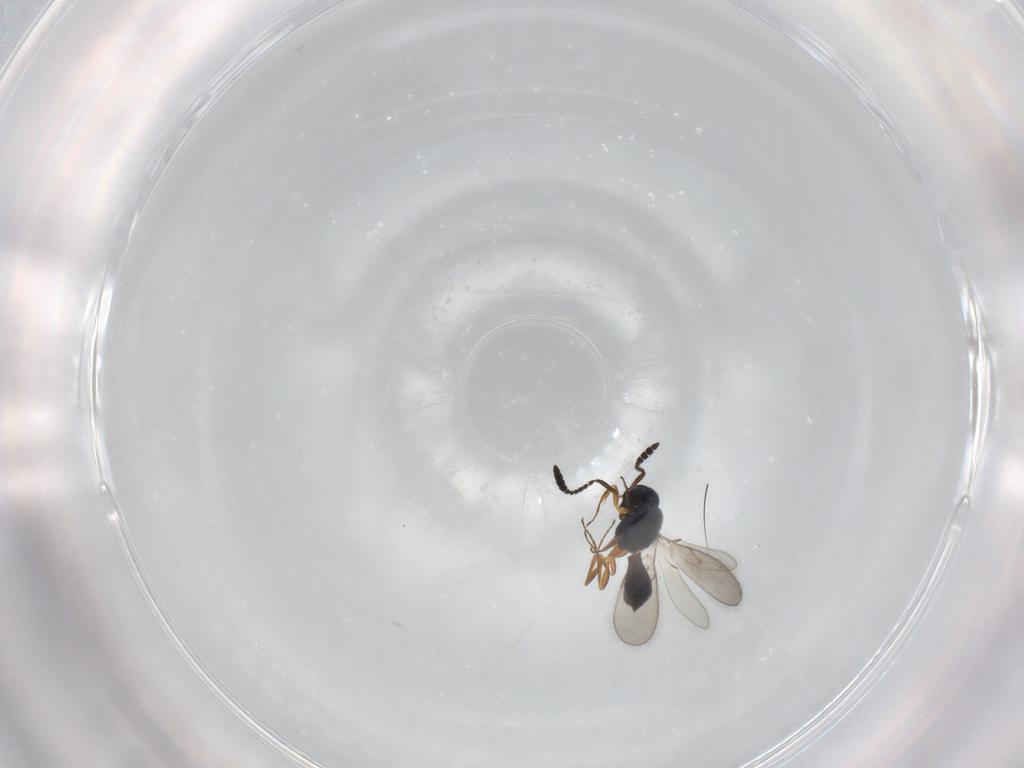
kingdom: Animalia
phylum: Arthropoda
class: Insecta
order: Hymenoptera
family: Scelionidae
